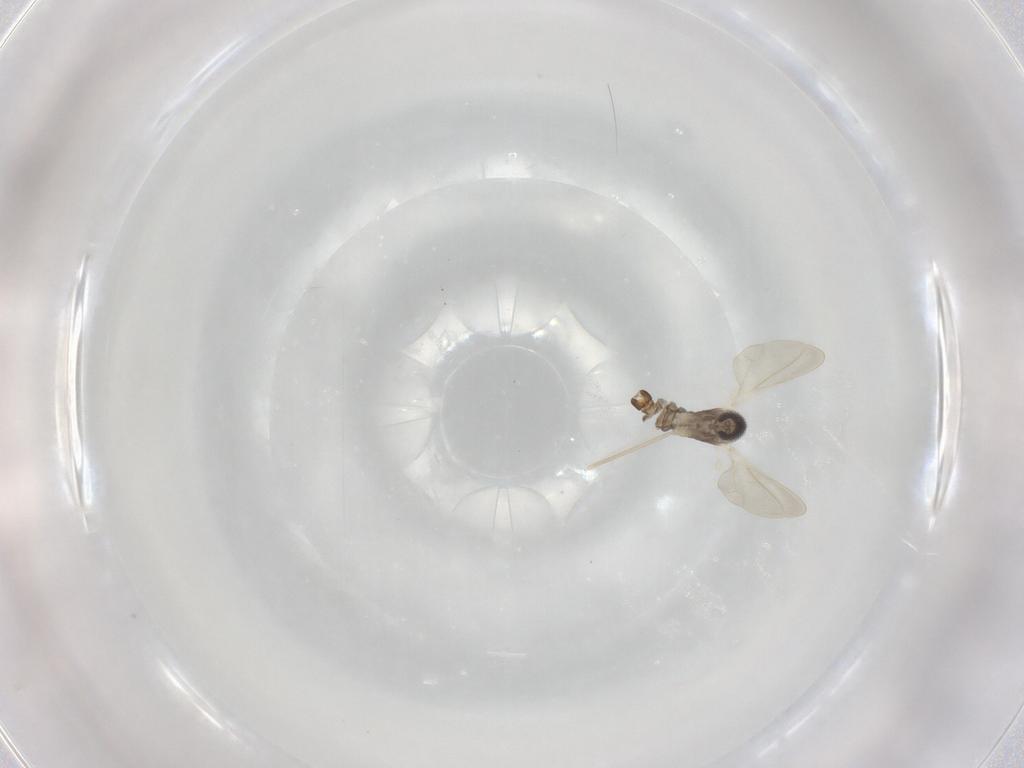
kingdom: Animalia
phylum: Arthropoda
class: Insecta
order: Diptera
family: Cecidomyiidae
